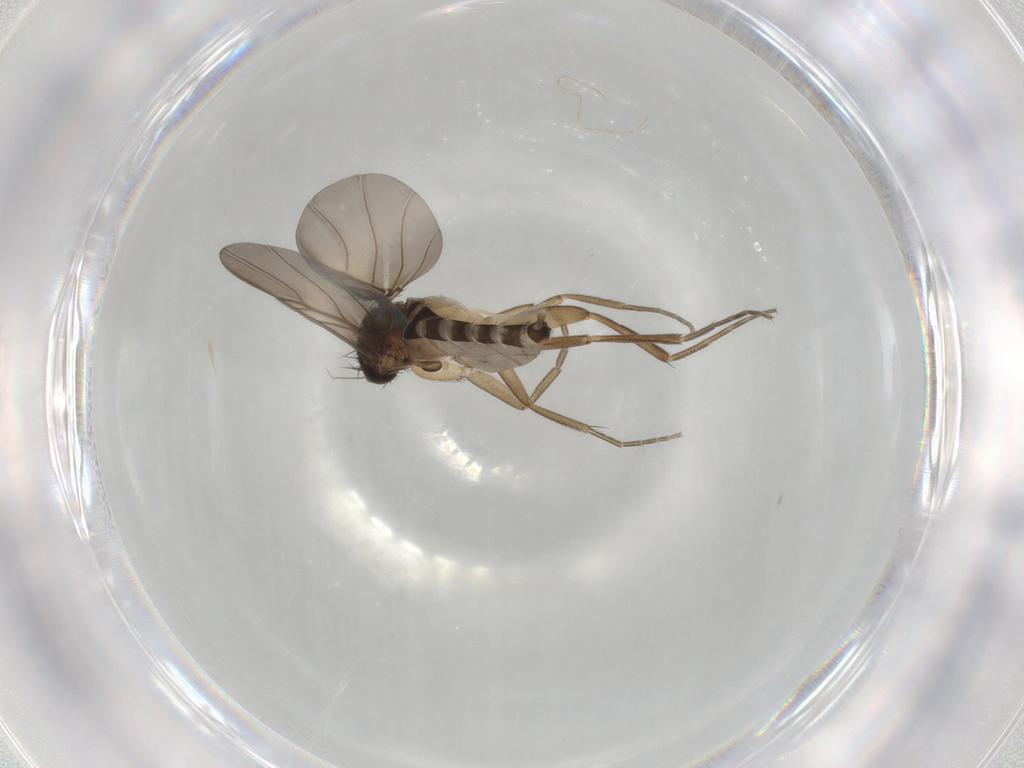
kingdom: Animalia
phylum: Arthropoda
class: Insecta
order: Diptera
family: Phoridae
